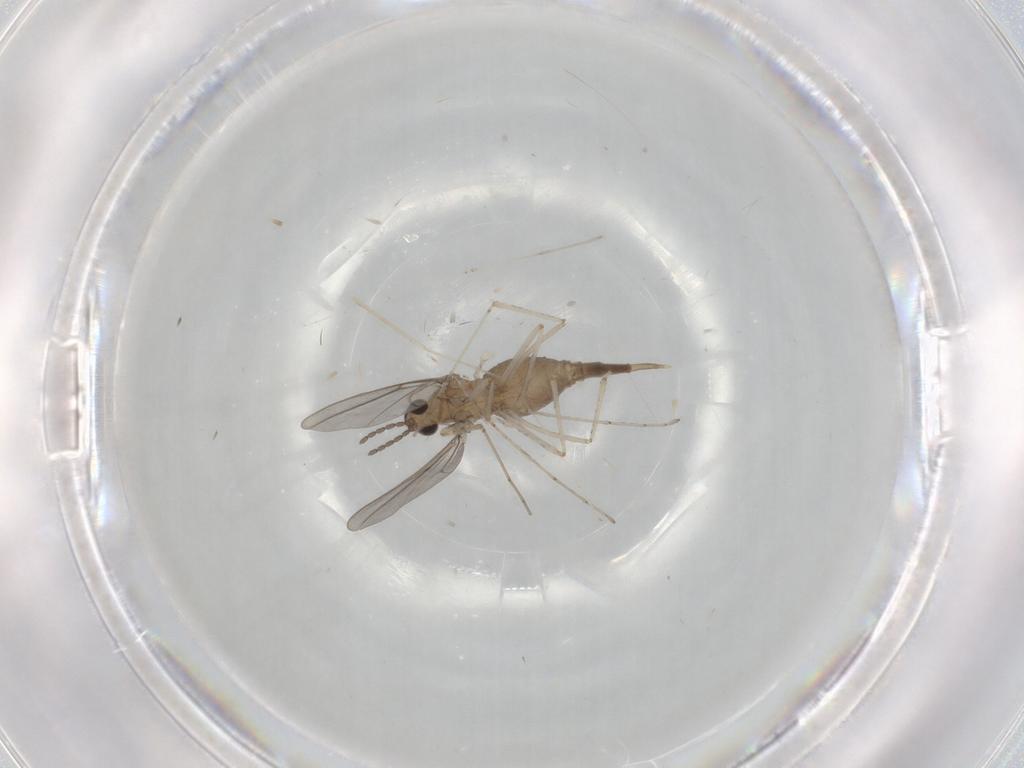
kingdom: Animalia
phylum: Arthropoda
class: Insecta
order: Diptera
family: Cecidomyiidae
